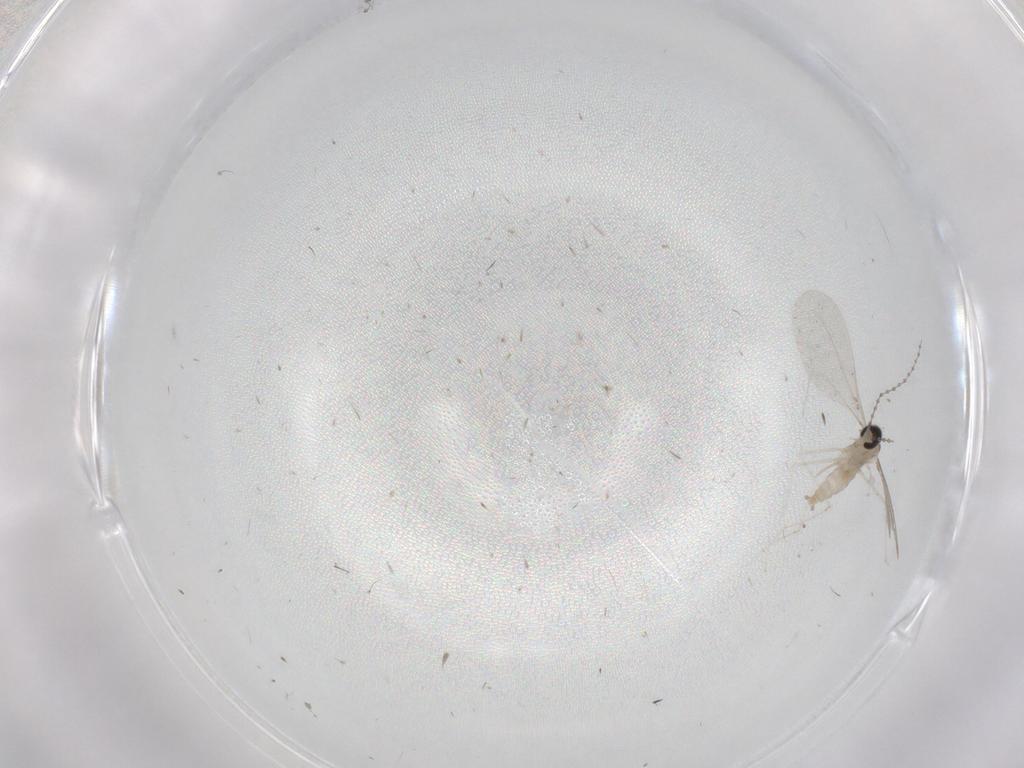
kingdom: Animalia
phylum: Arthropoda
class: Insecta
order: Diptera
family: Cecidomyiidae
